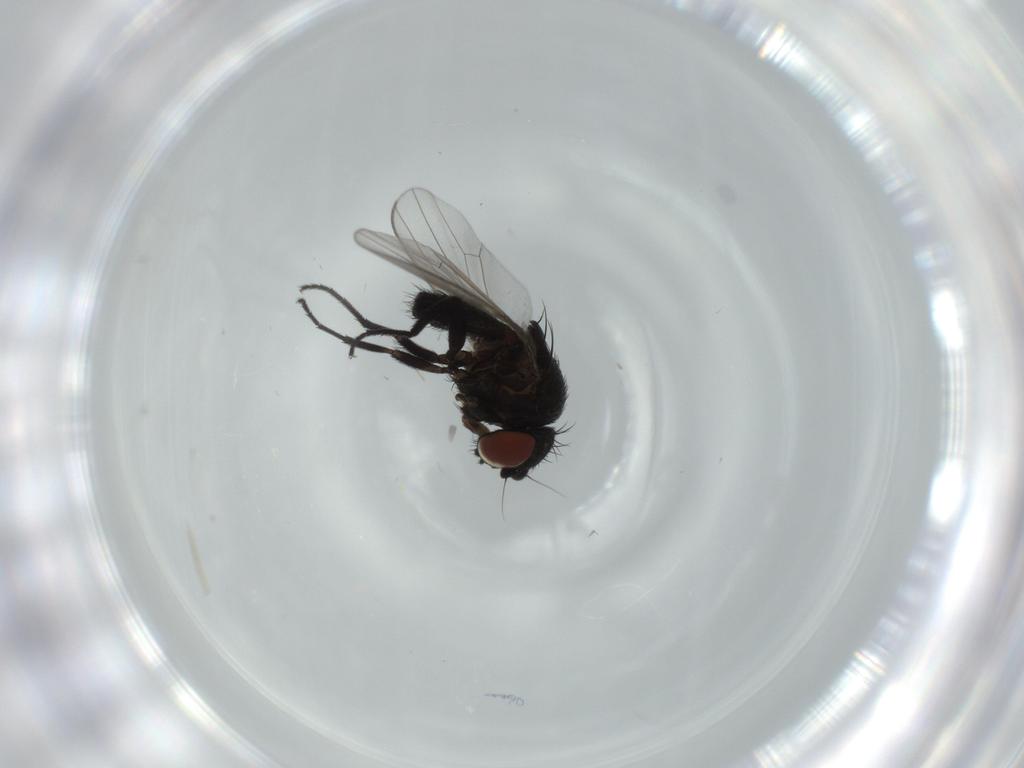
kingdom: Animalia
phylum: Arthropoda
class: Insecta
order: Diptera
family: Milichiidae
